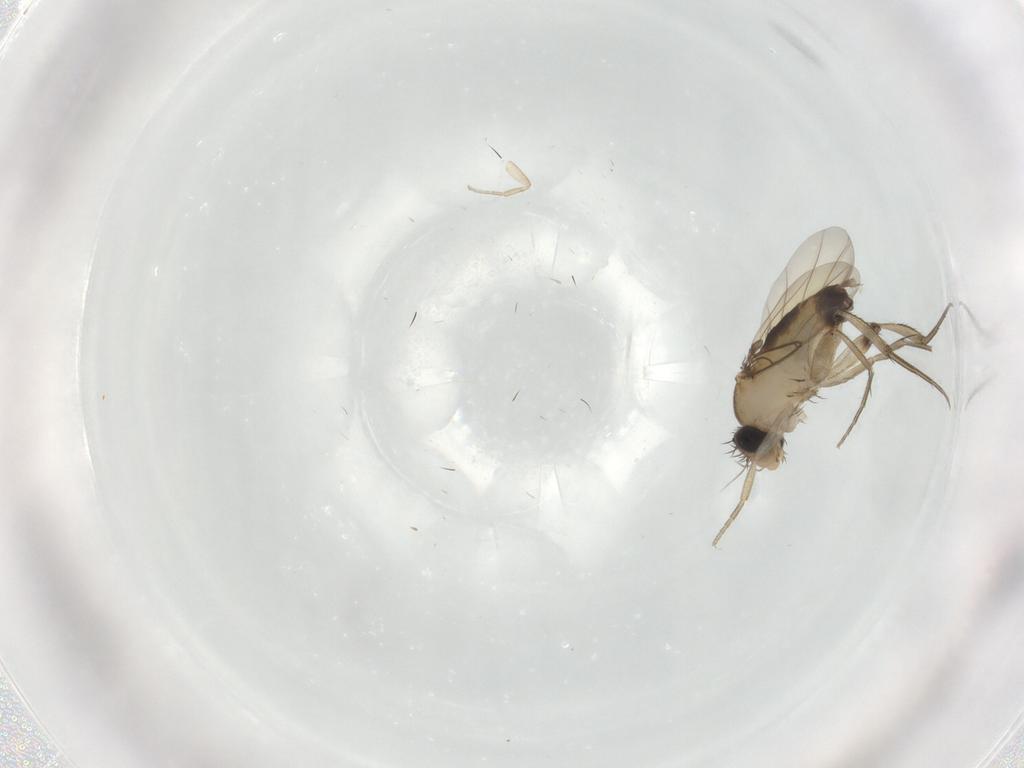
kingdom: Animalia
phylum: Arthropoda
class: Insecta
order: Diptera
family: Phoridae
